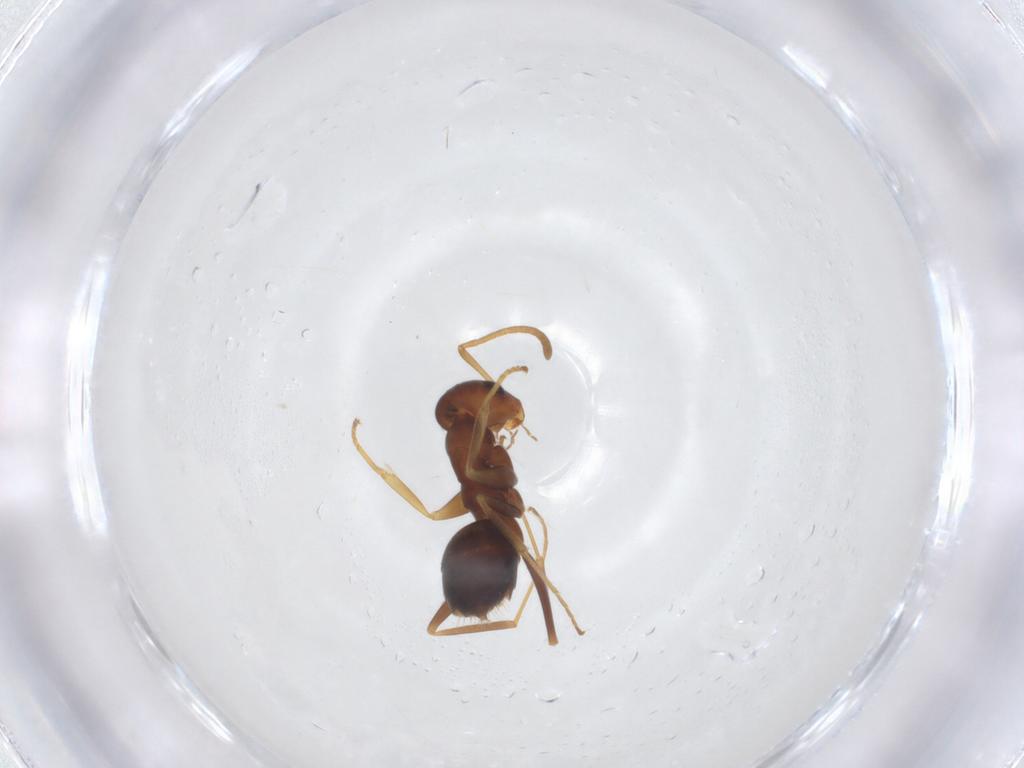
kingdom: Animalia
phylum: Arthropoda
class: Insecta
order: Hymenoptera
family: Formicidae
